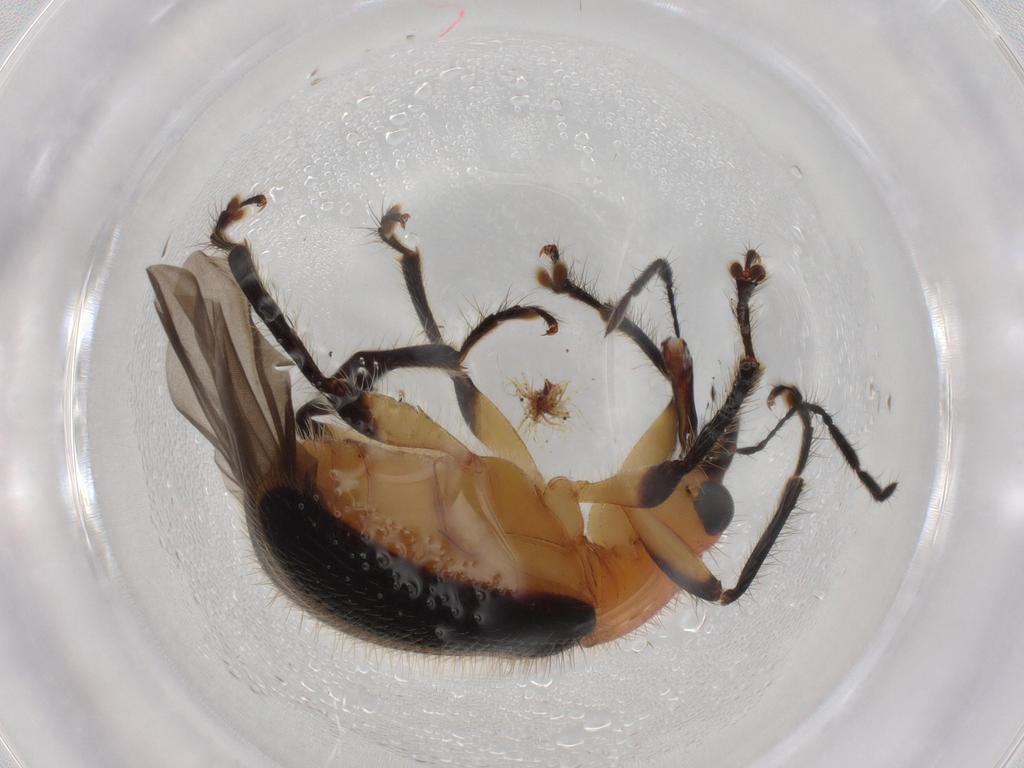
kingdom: Animalia
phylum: Arthropoda
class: Insecta
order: Coleoptera
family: Attelabidae
